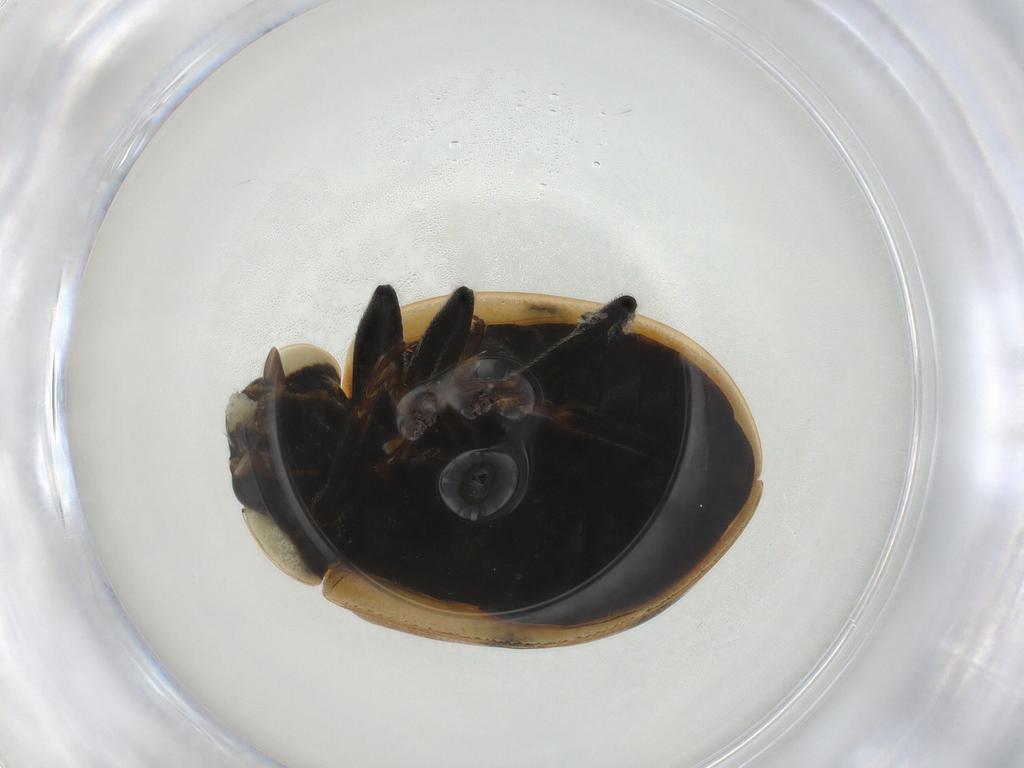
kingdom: Animalia
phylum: Arthropoda
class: Insecta
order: Coleoptera
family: Coccinellidae
